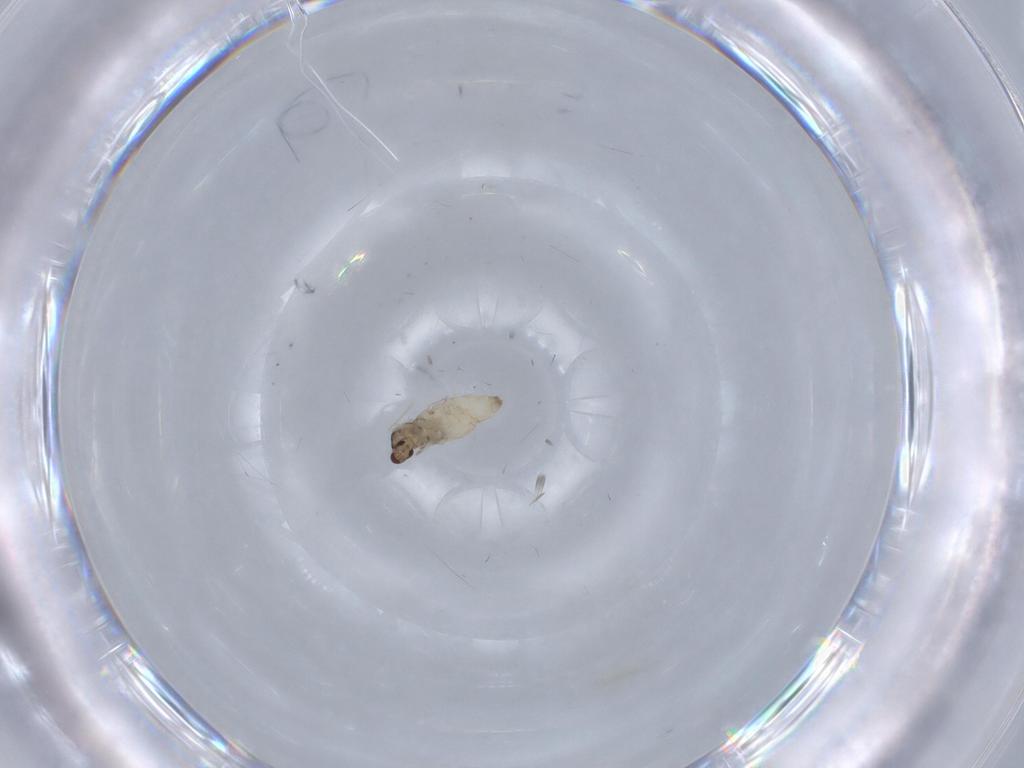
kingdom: Animalia
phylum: Arthropoda
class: Insecta
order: Diptera
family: Cecidomyiidae
